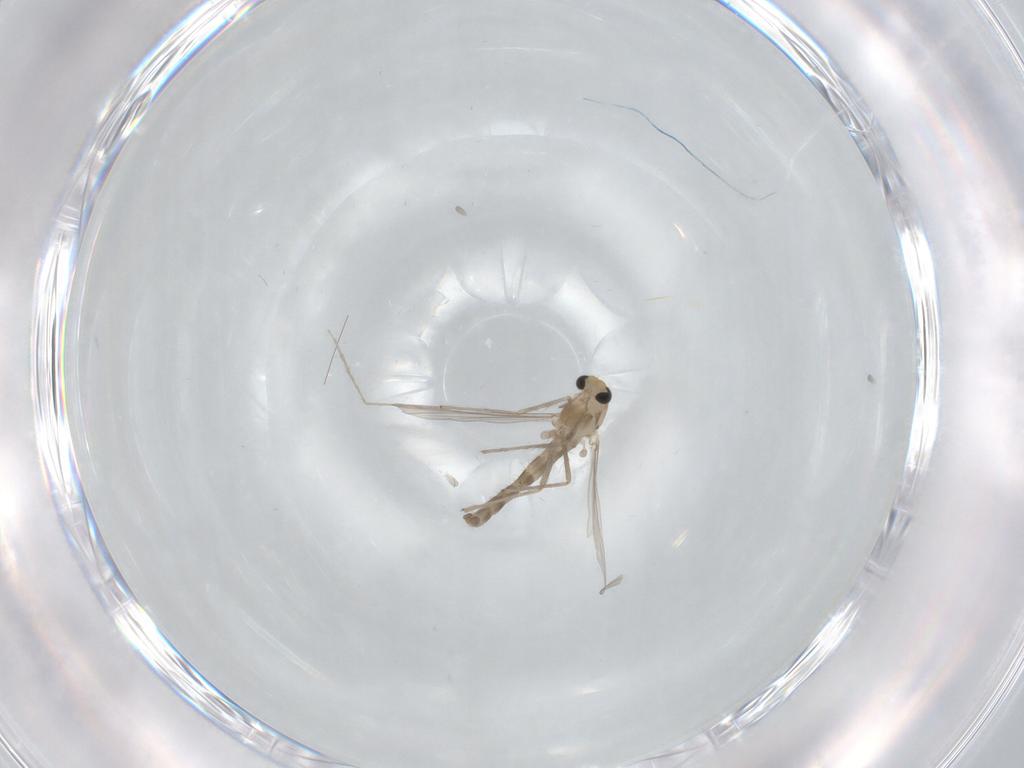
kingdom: Animalia
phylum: Arthropoda
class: Insecta
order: Diptera
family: Chironomidae
